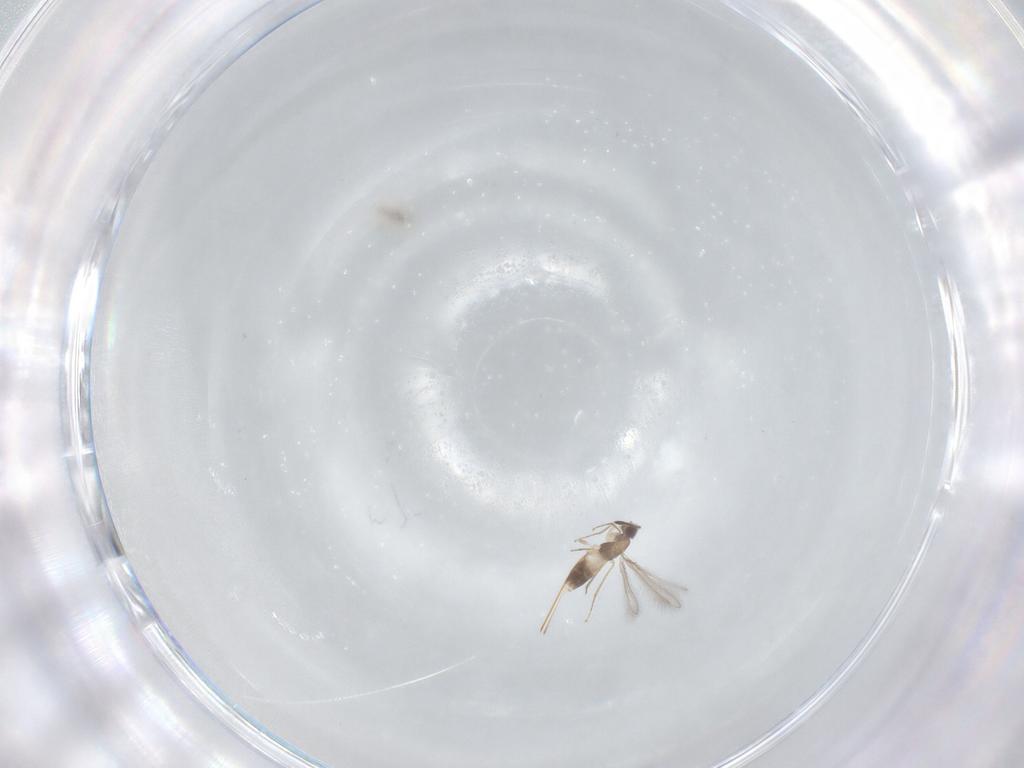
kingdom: Animalia
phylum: Arthropoda
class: Insecta
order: Hymenoptera
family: Mymaridae
